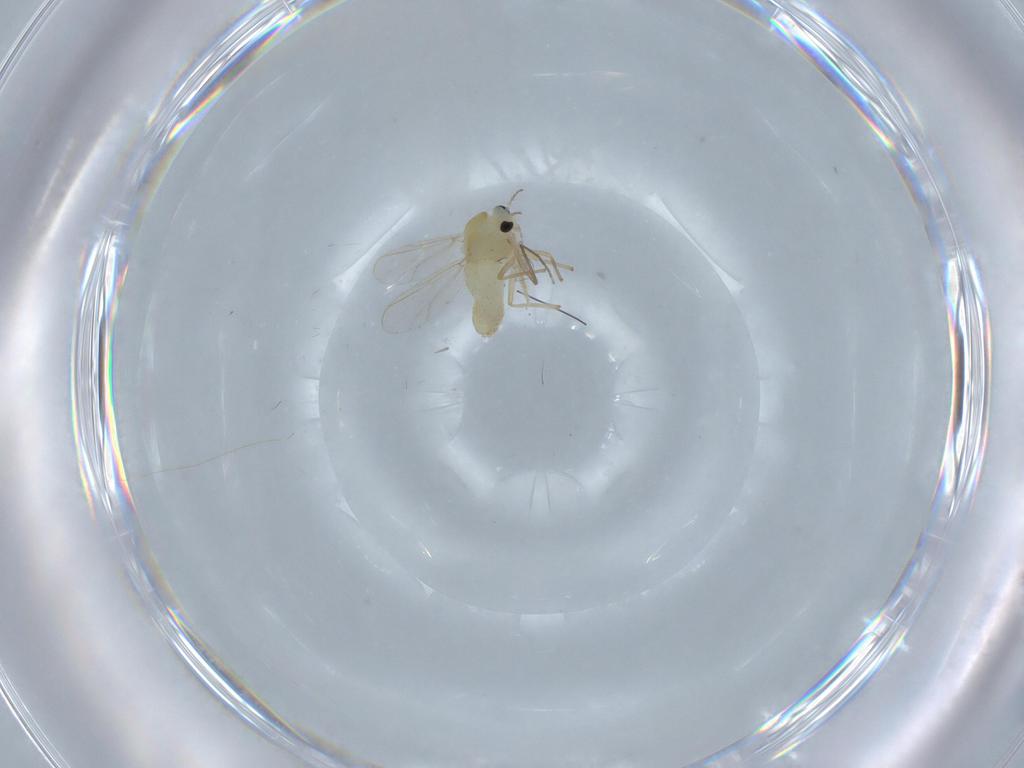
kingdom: Animalia
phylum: Arthropoda
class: Insecta
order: Diptera
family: Chironomidae
